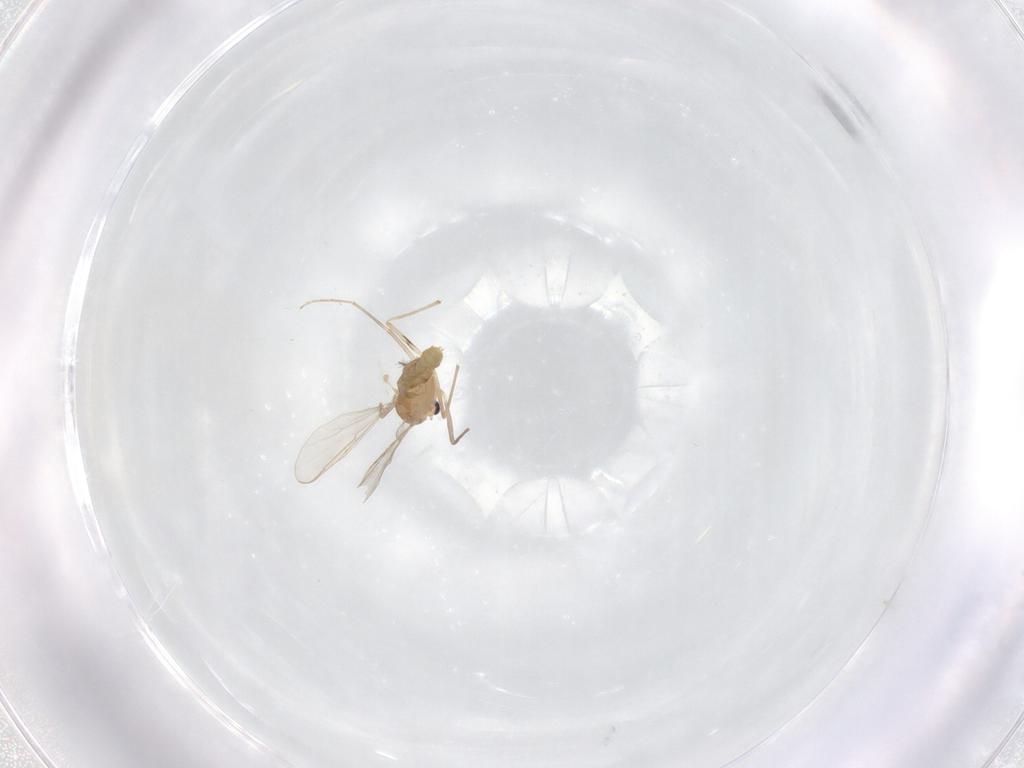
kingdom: Animalia
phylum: Arthropoda
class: Insecta
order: Diptera
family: Chironomidae
